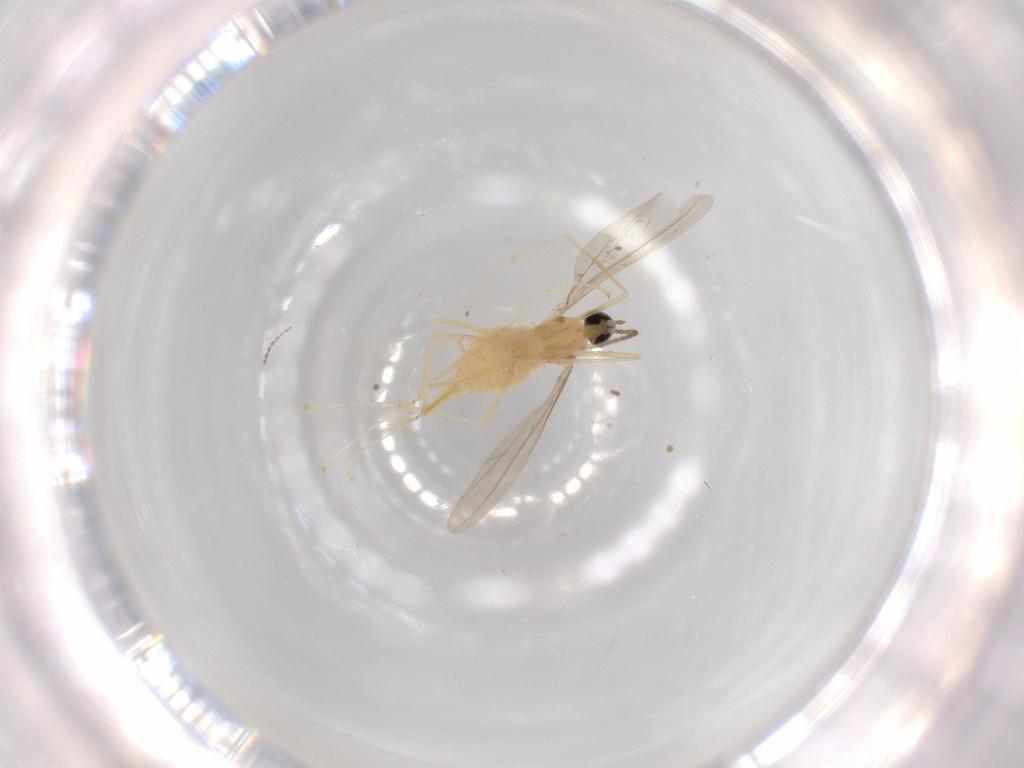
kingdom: Animalia
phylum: Arthropoda
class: Insecta
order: Diptera
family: Cecidomyiidae
